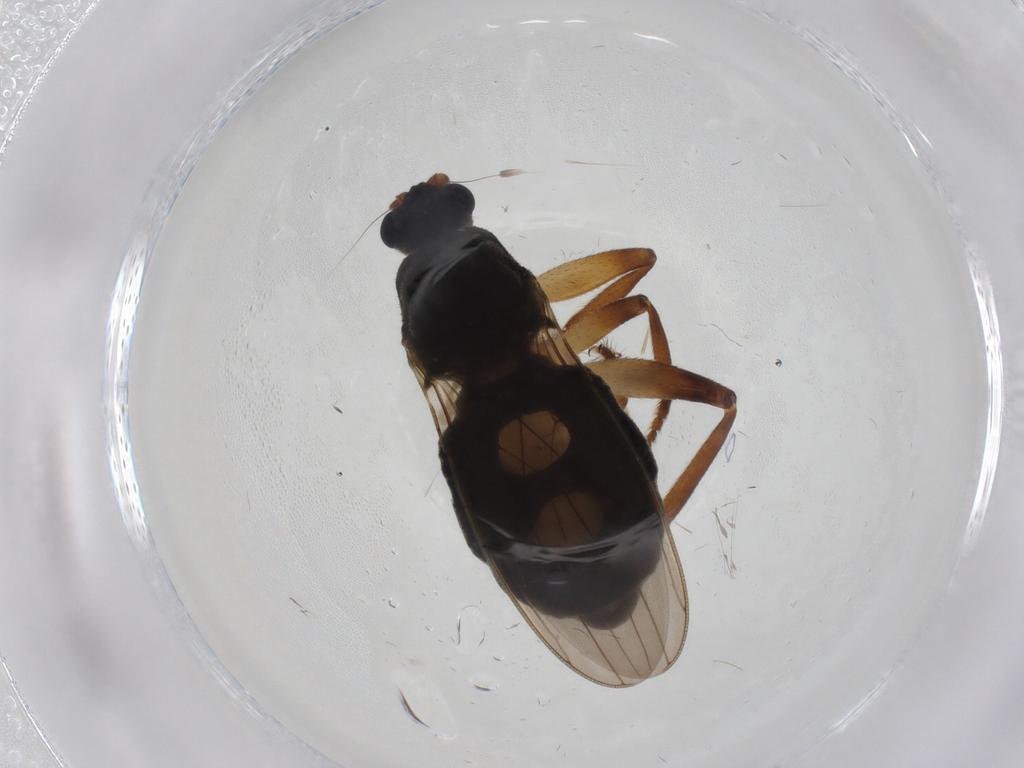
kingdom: Animalia
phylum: Arthropoda
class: Insecta
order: Diptera
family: Sphaeroceridae
